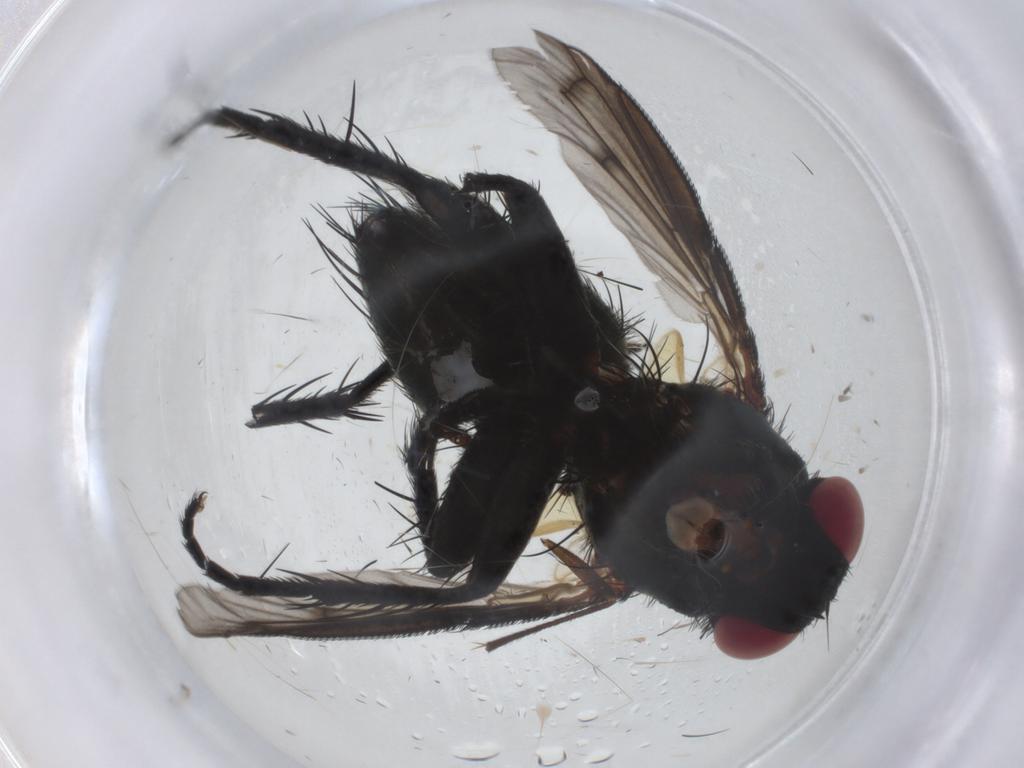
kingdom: Animalia
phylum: Arthropoda
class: Insecta
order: Diptera
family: Tachinidae
